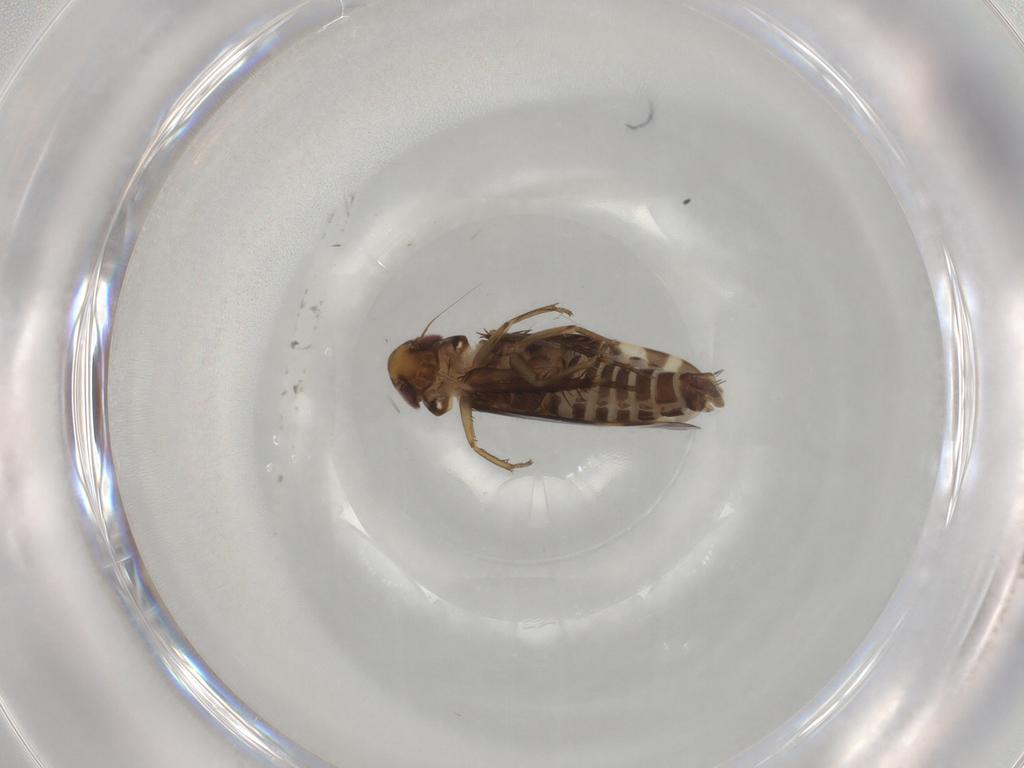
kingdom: Animalia
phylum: Arthropoda
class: Insecta
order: Hemiptera
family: Cicadellidae
